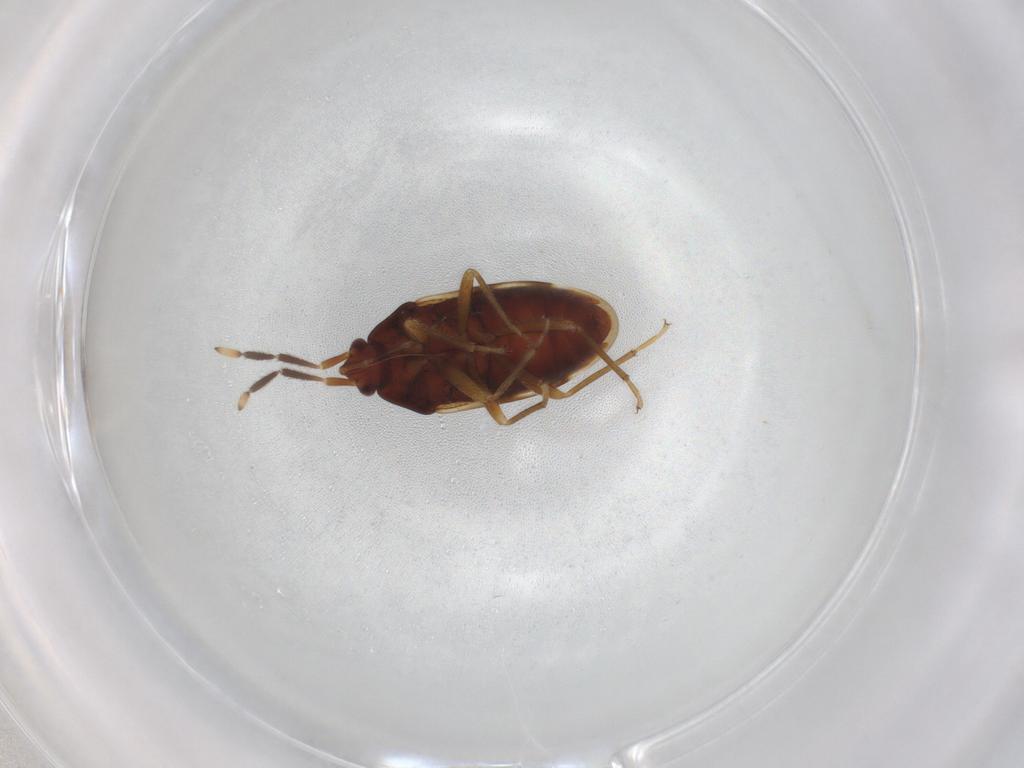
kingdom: Animalia
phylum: Arthropoda
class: Insecta
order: Hemiptera
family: Rhyparochromidae
